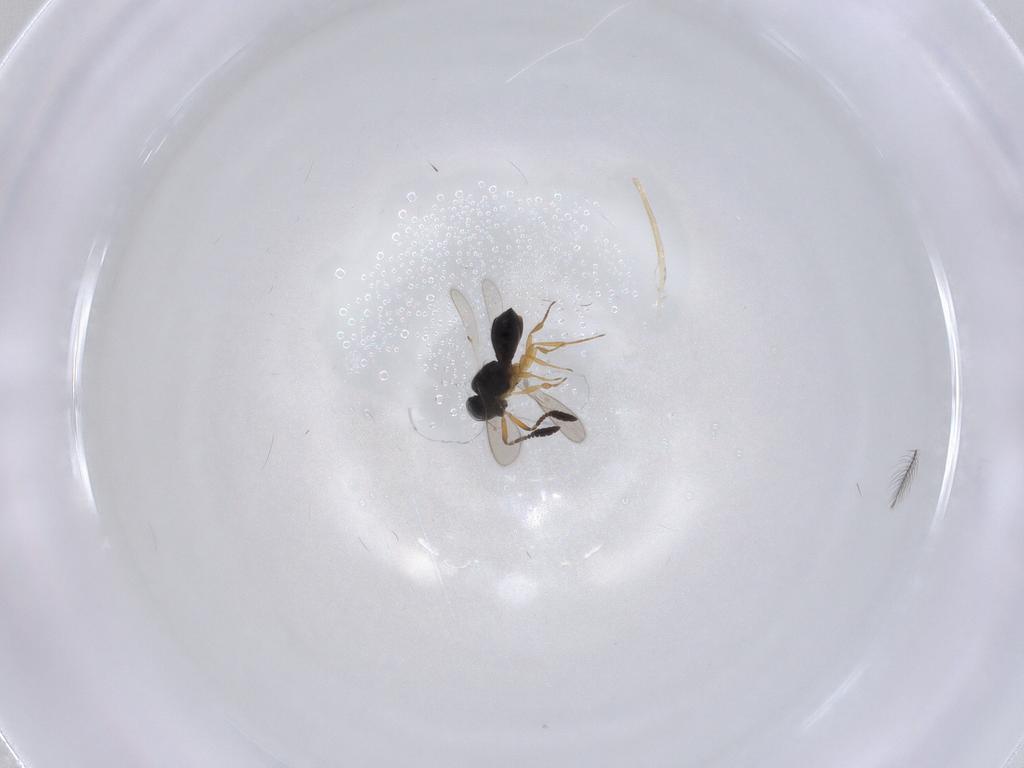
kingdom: Animalia
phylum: Arthropoda
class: Insecta
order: Hymenoptera
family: Scelionidae
